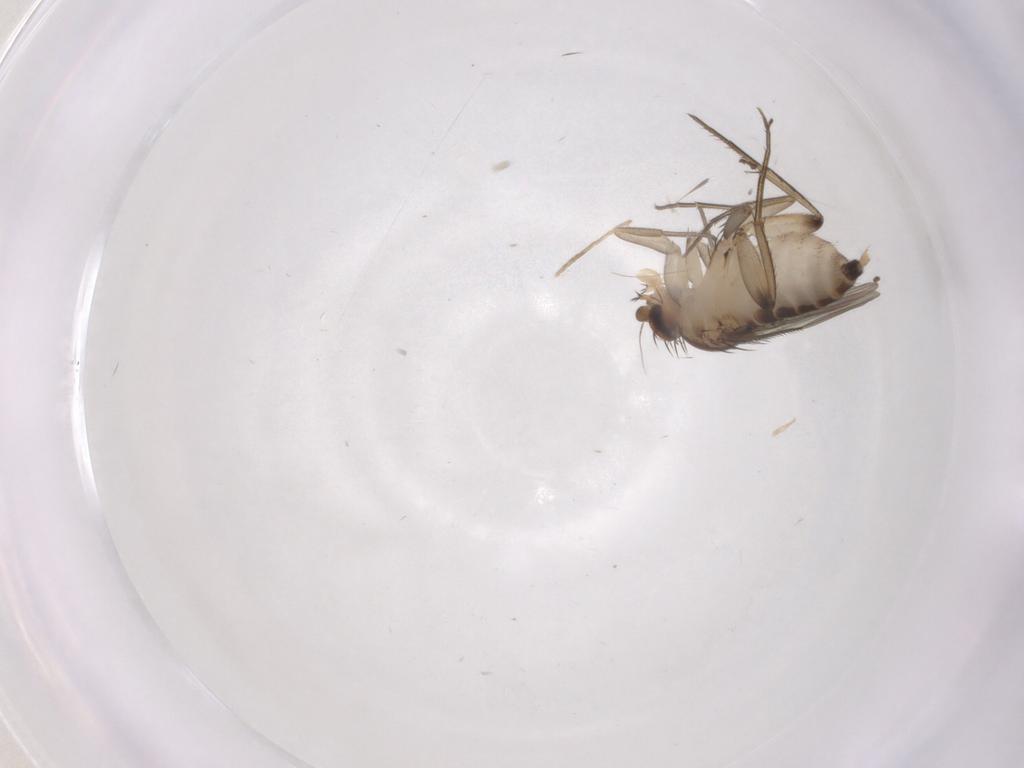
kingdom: Animalia
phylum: Arthropoda
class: Insecta
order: Diptera
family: Phoridae
